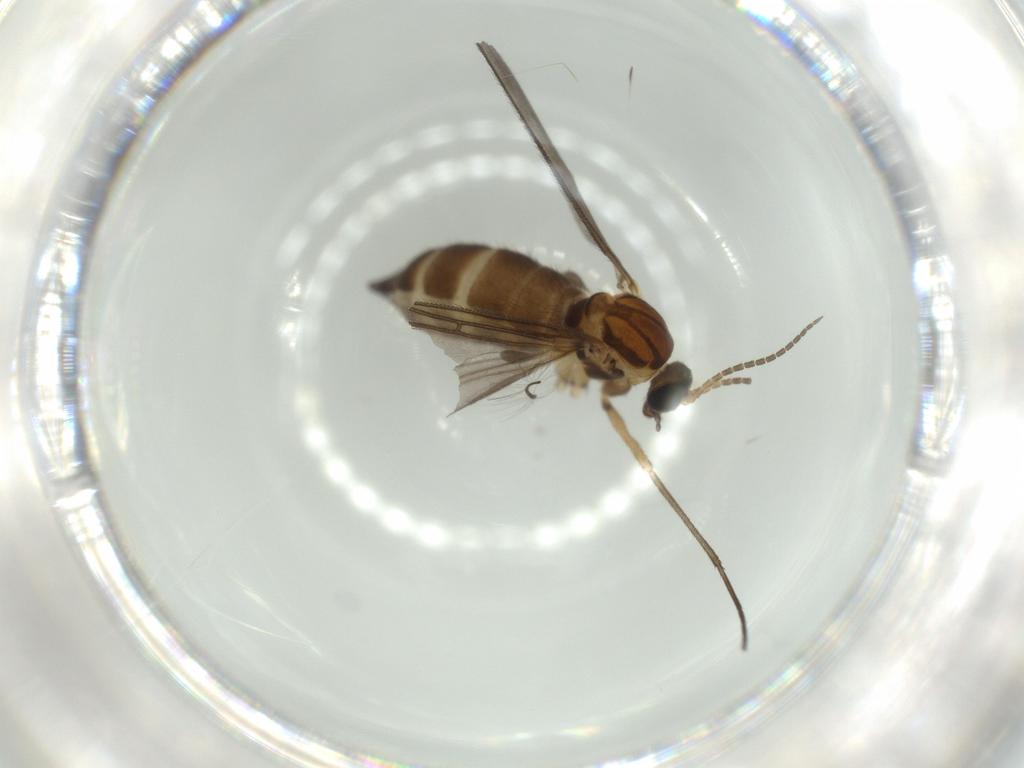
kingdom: Animalia
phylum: Arthropoda
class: Insecta
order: Diptera
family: Sciaridae
